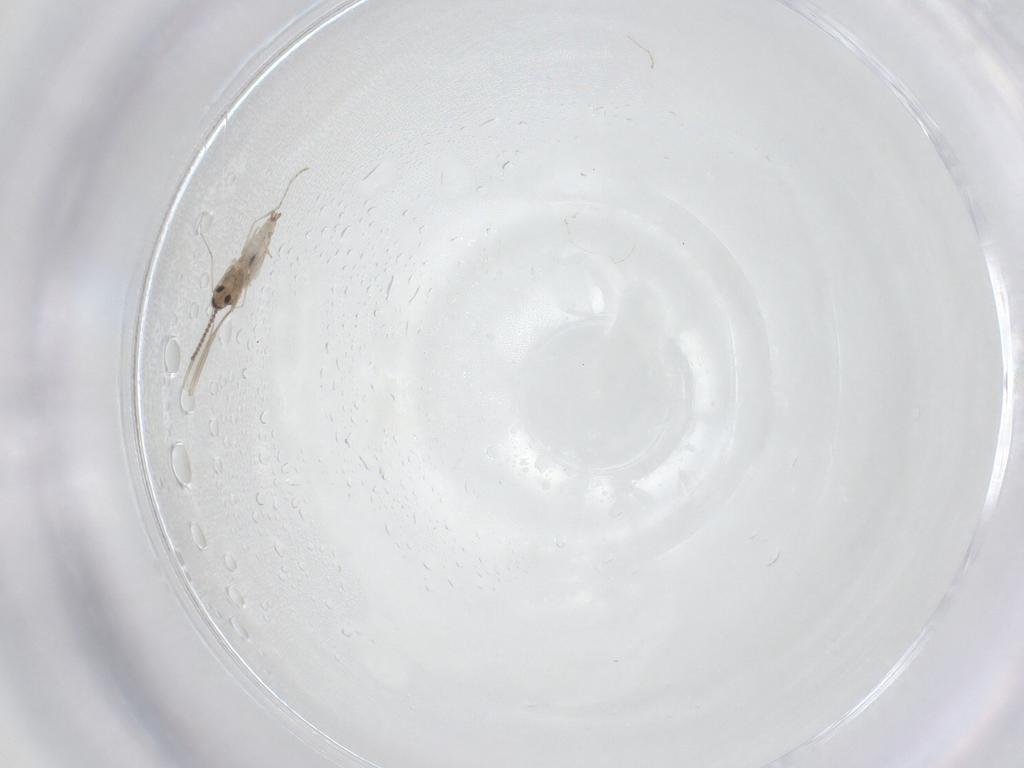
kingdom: Animalia
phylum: Arthropoda
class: Insecta
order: Diptera
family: Cecidomyiidae
